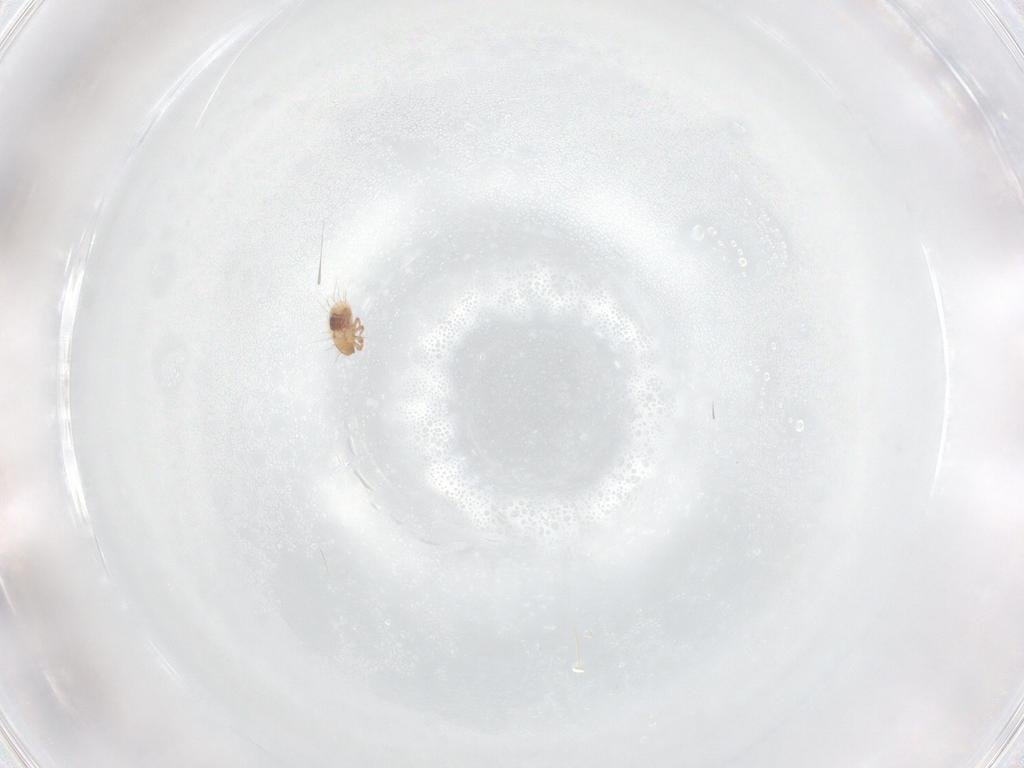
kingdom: Animalia
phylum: Arthropoda
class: Arachnida
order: Sarcoptiformes
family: Oribatulidae
